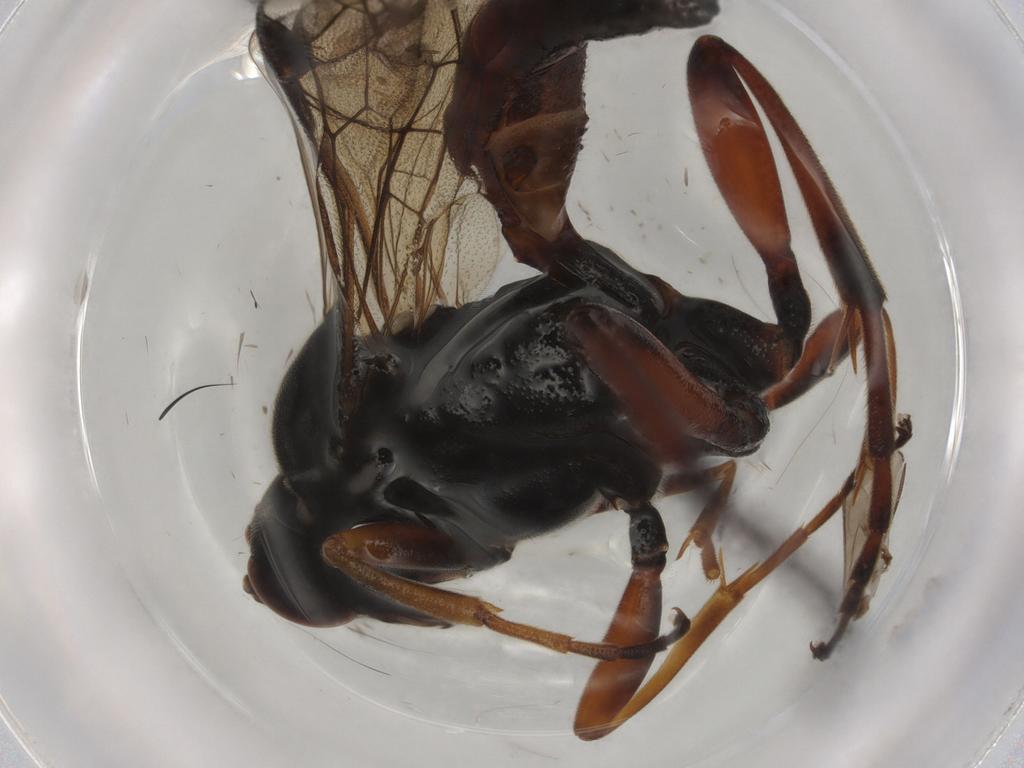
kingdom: Animalia
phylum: Arthropoda
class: Insecta
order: Hymenoptera
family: Ichneumonidae
